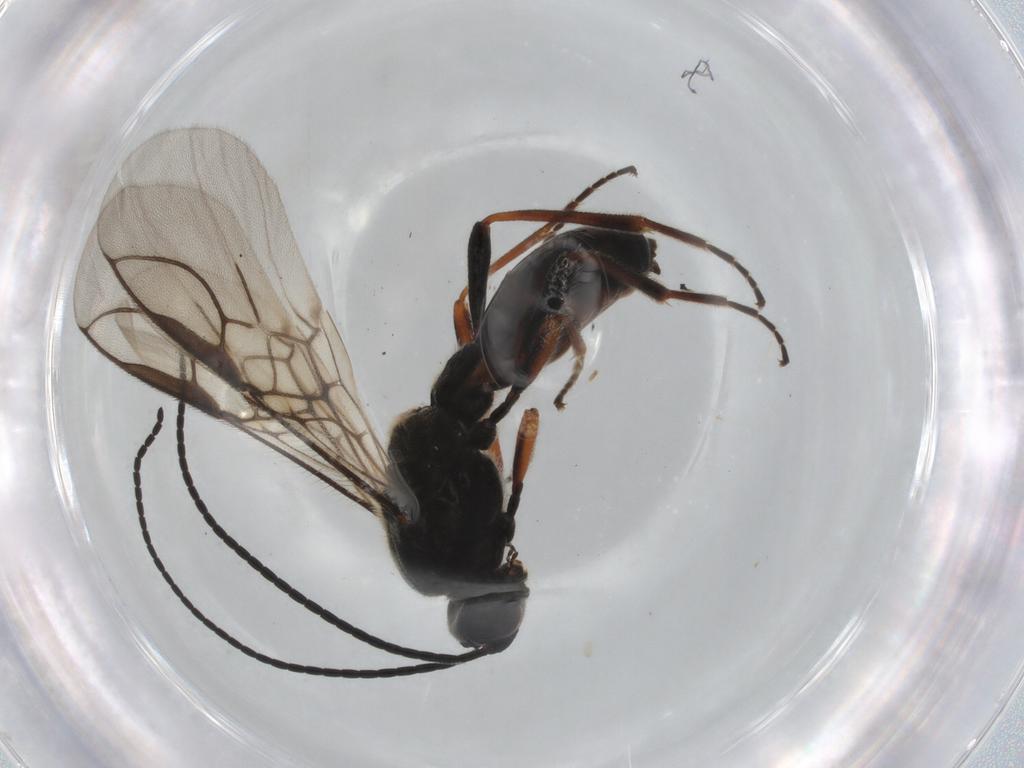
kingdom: Animalia
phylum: Arthropoda
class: Insecta
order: Hymenoptera
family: Braconidae
